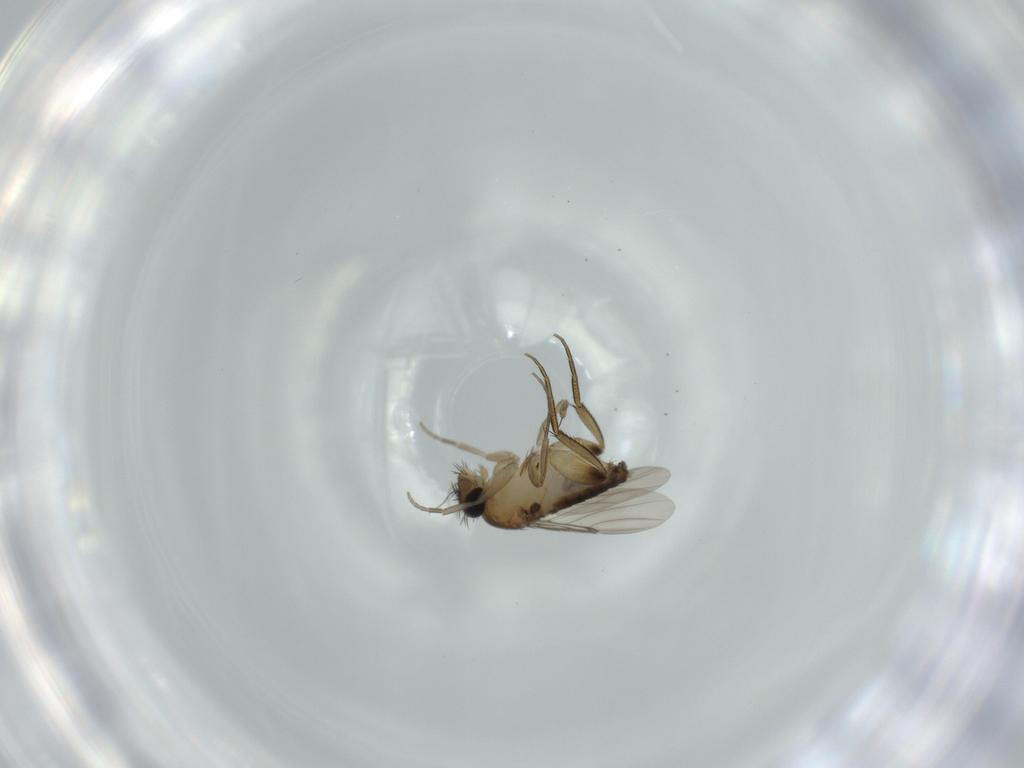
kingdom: Animalia
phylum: Arthropoda
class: Insecta
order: Diptera
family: Phoridae
